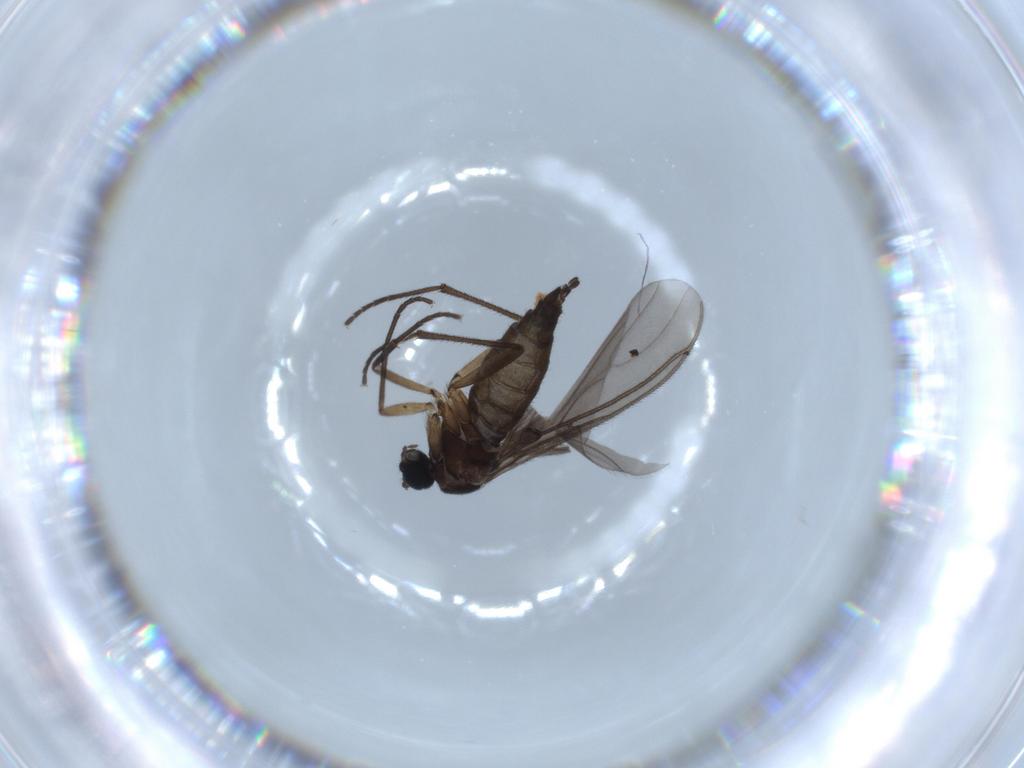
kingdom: Animalia
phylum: Arthropoda
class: Insecta
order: Diptera
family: Sciaridae
